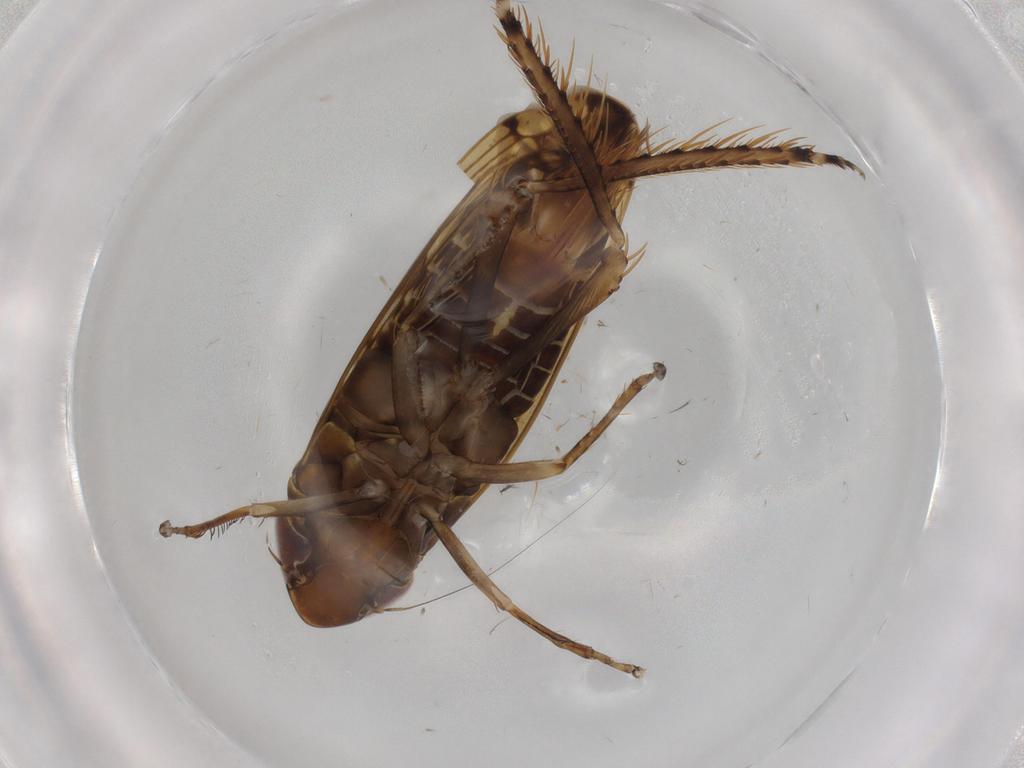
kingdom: Animalia
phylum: Arthropoda
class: Insecta
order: Hemiptera
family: Cicadellidae
